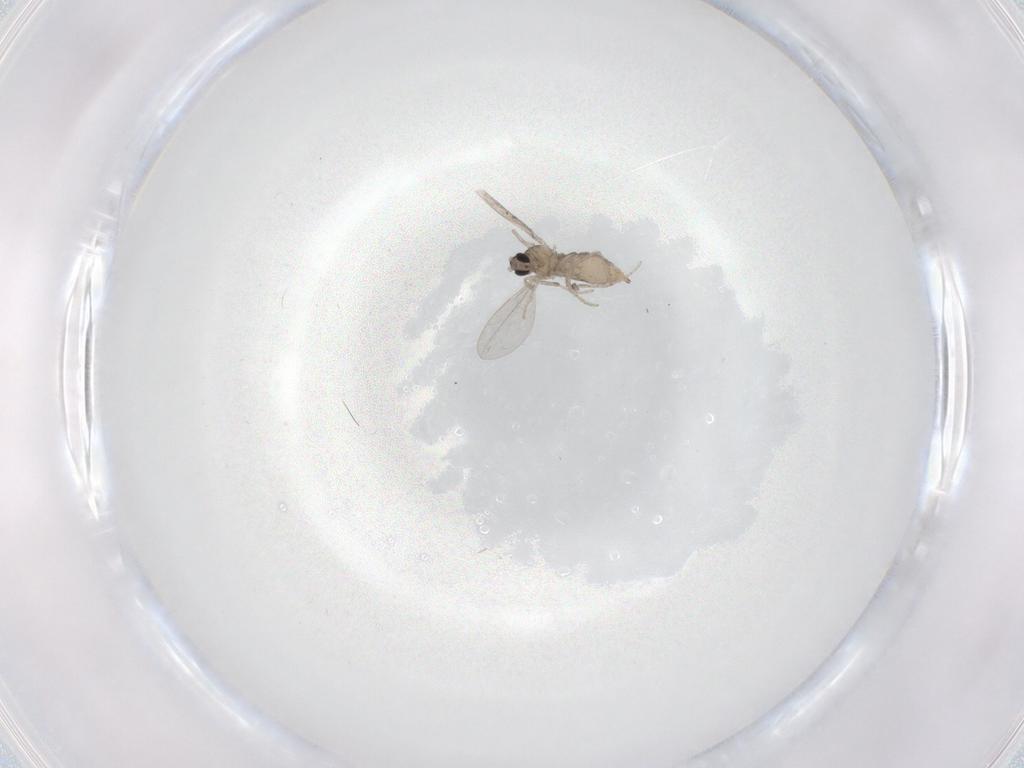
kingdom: Animalia
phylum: Arthropoda
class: Insecta
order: Diptera
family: Cecidomyiidae
